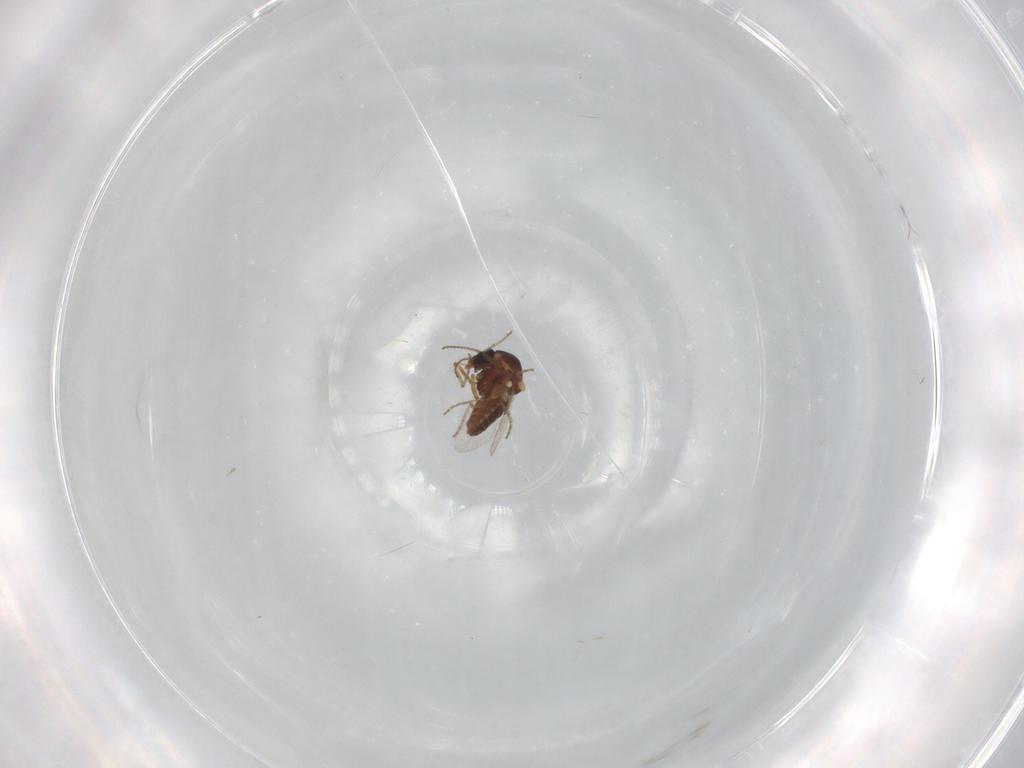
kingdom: Animalia
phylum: Arthropoda
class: Insecta
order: Diptera
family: Ceratopogonidae
